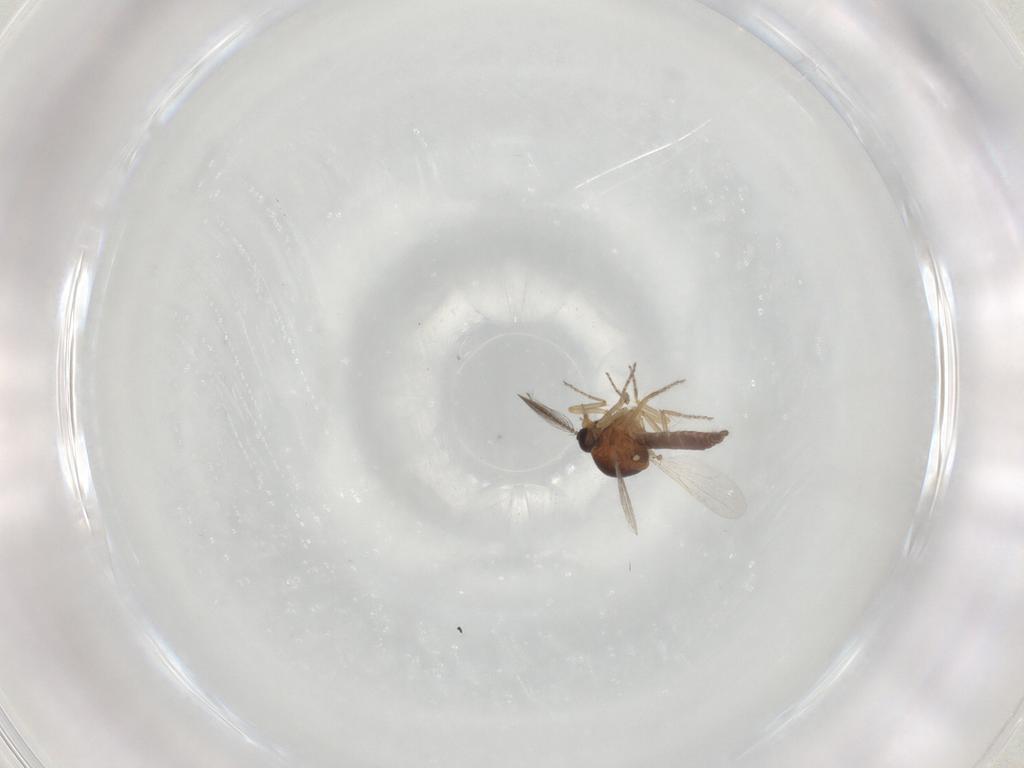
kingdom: Animalia
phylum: Arthropoda
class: Insecta
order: Diptera
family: Ceratopogonidae
